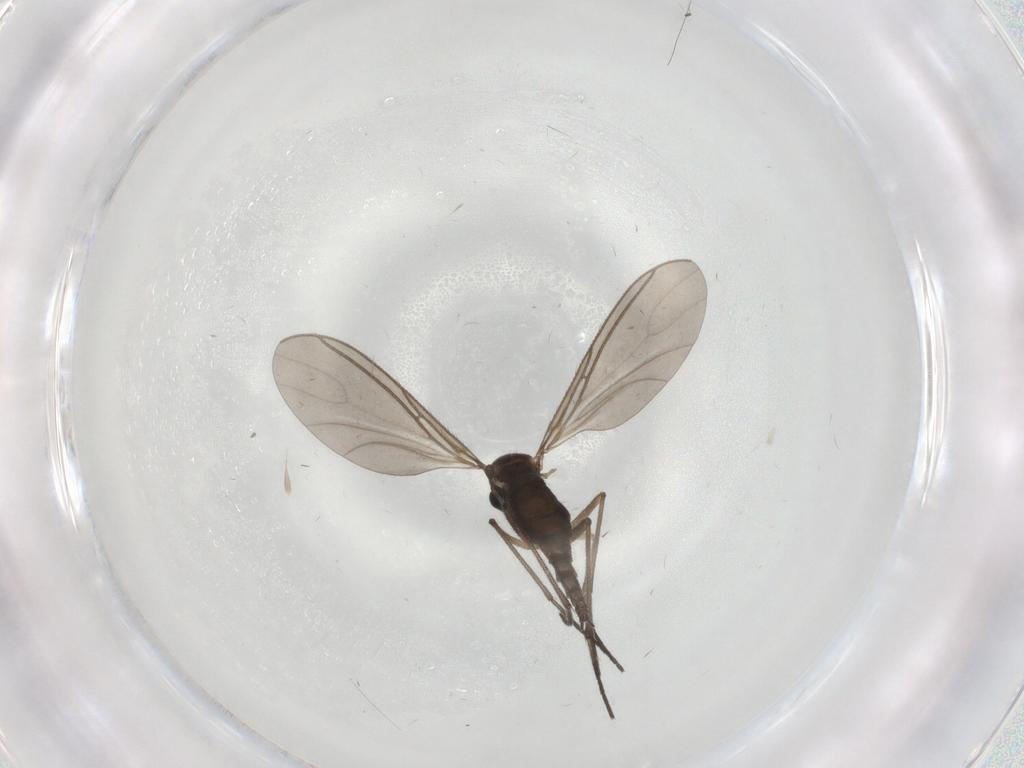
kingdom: Animalia
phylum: Arthropoda
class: Insecta
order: Diptera
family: Sciaridae
